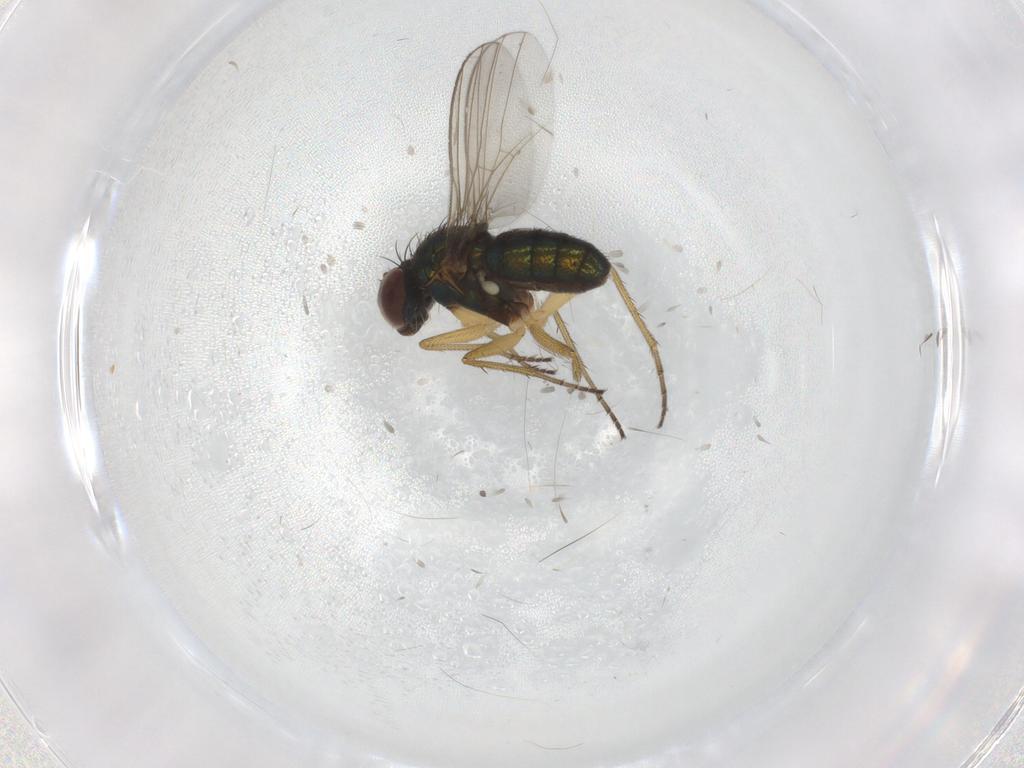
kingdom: Animalia
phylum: Arthropoda
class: Insecta
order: Diptera
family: Dolichopodidae
